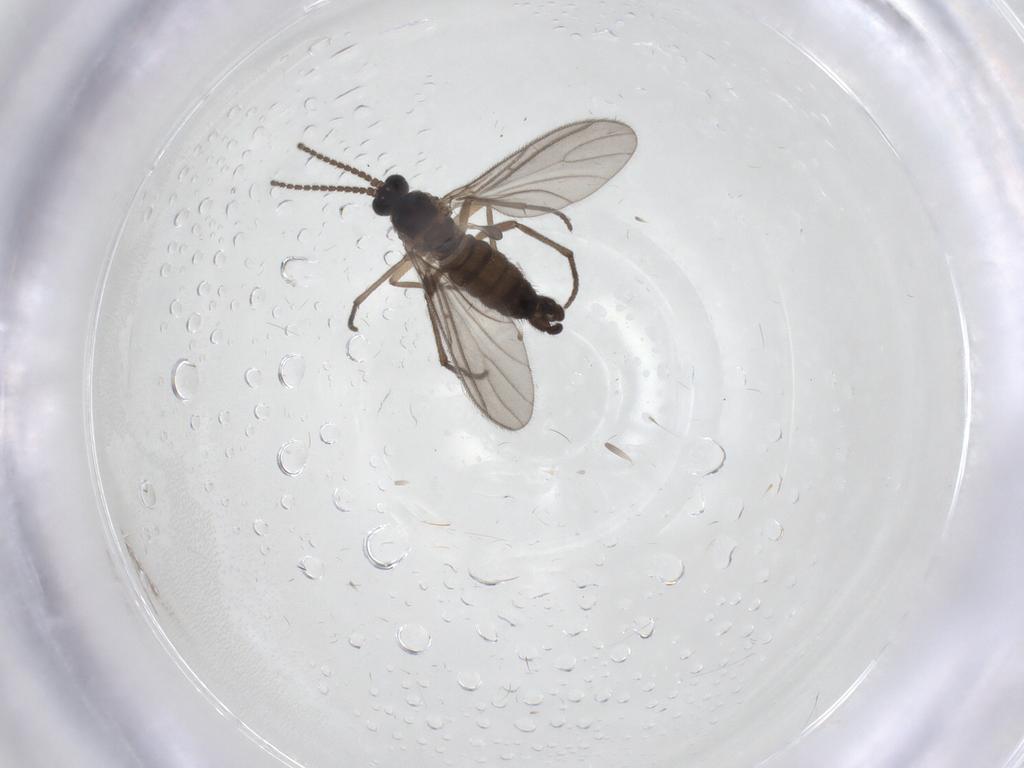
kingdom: Animalia
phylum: Arthropoda
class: Insecta
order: Diptera
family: Sciaridae
